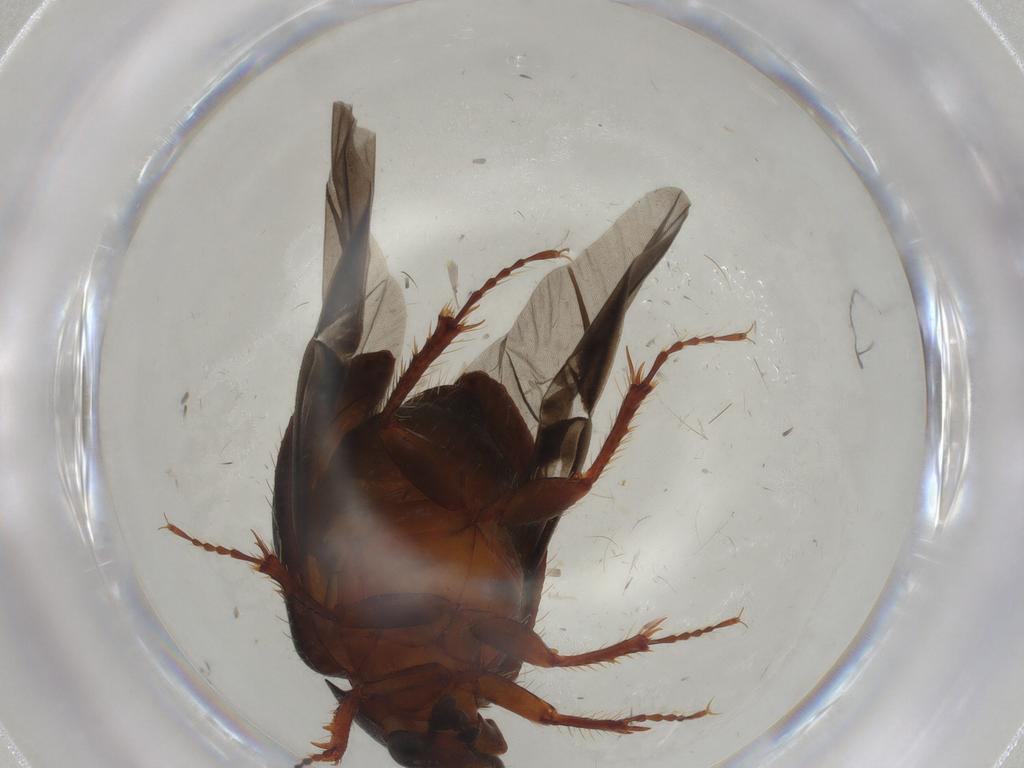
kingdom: Animalia
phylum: Arthropoda
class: Insecta
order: Coleoptera
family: Hybosoridae
